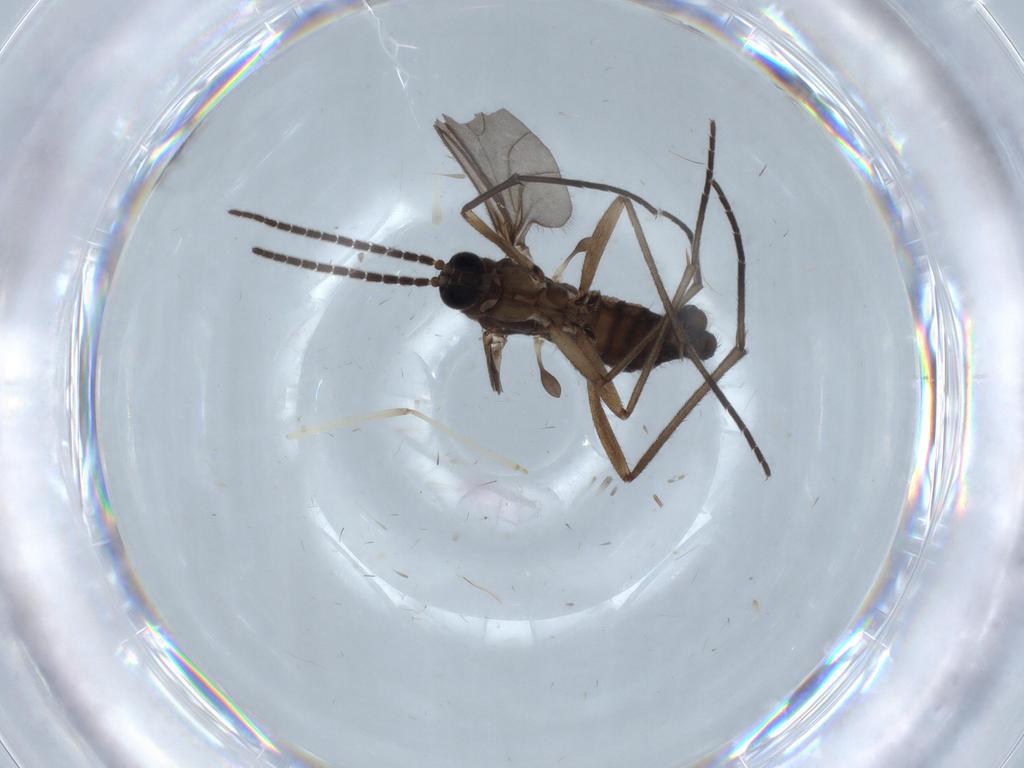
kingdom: Animalia
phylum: Arthropoda
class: Insecta
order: Diptera
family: Sciaridae
